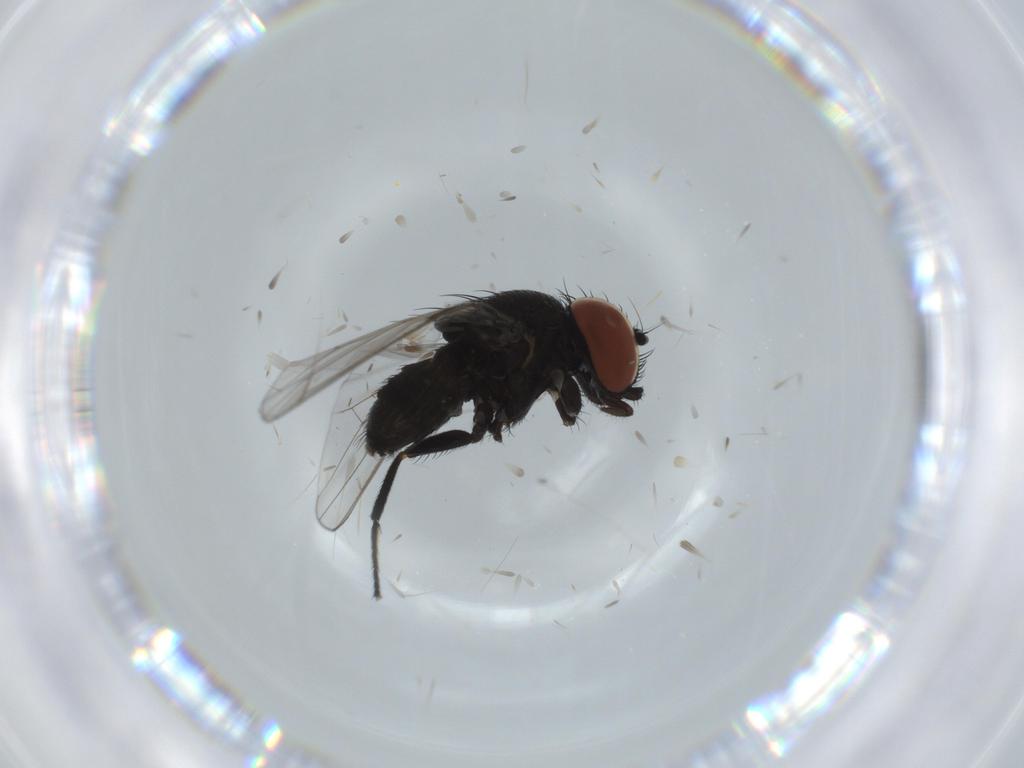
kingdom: Animalia
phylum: Arthropoda
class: Insecta
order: Diptera
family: Milichiidae
